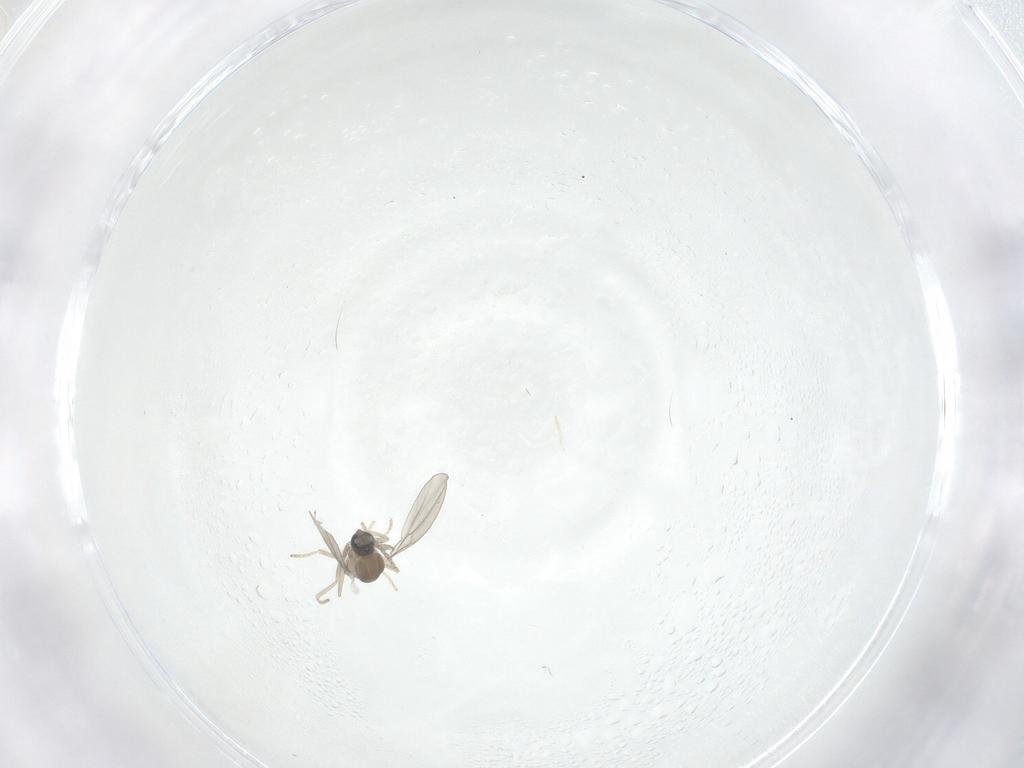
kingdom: Animalia
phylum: Arthropoda
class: Insecta
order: Diptera
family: Cecidomyiidae
